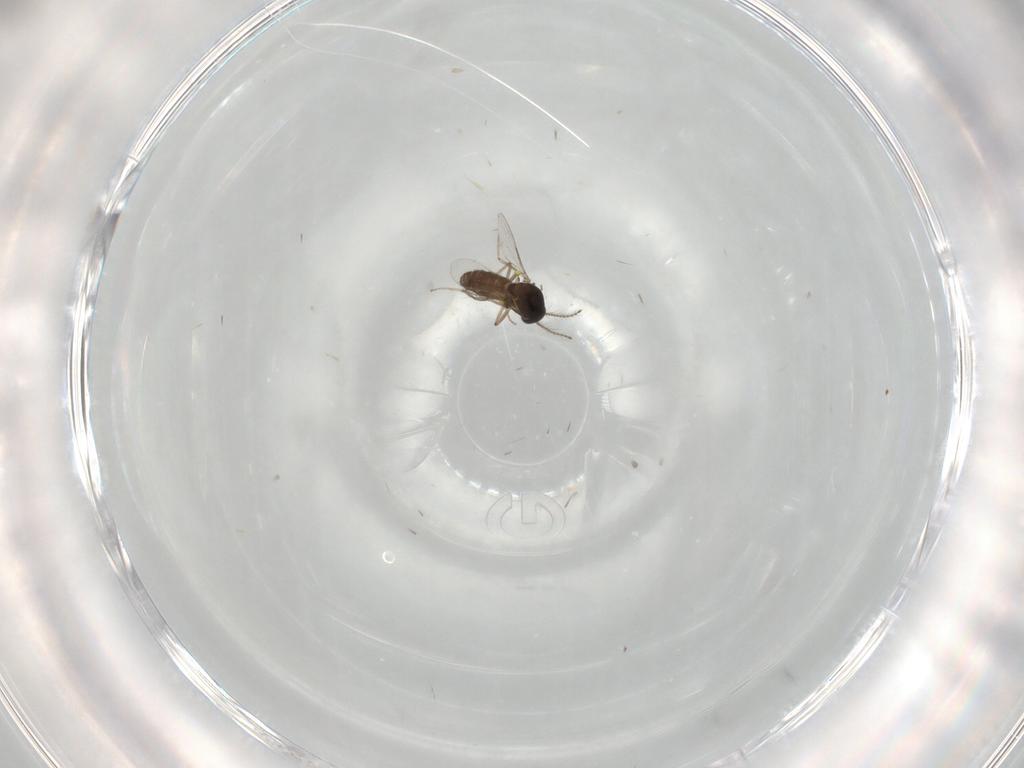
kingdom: Animalia
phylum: Arthropoda
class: Insecta
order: Diptera
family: Ceratopogonidae
